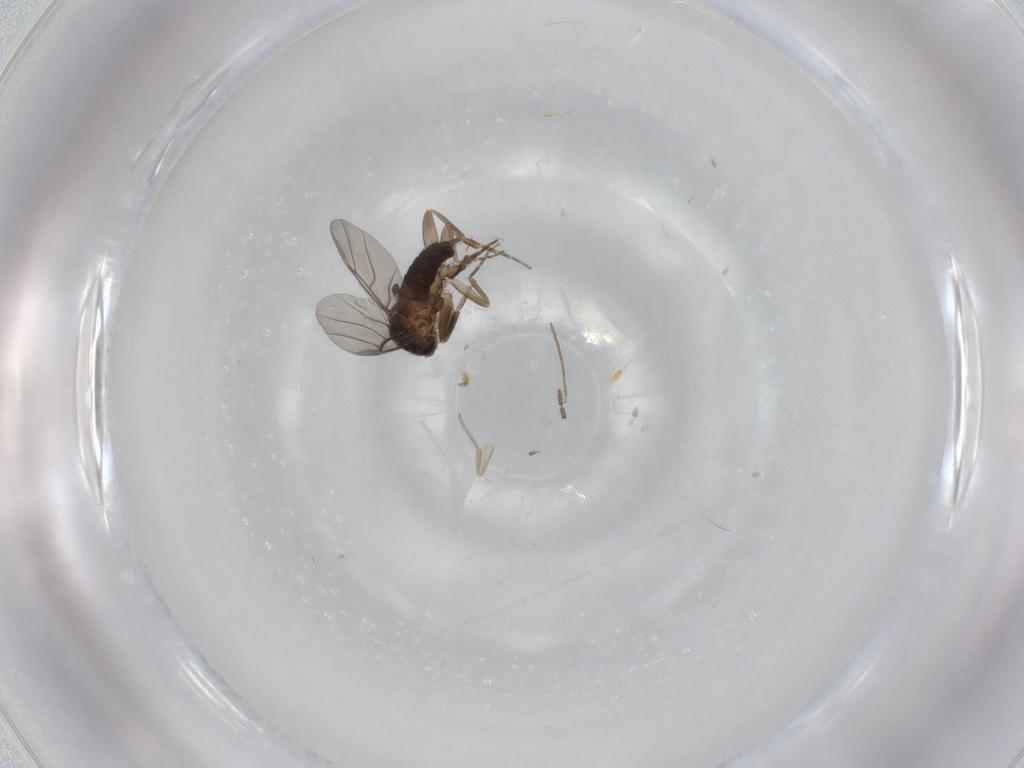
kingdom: Animalia
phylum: Arthropoda
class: Insecta
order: Diptera
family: Phoridae
